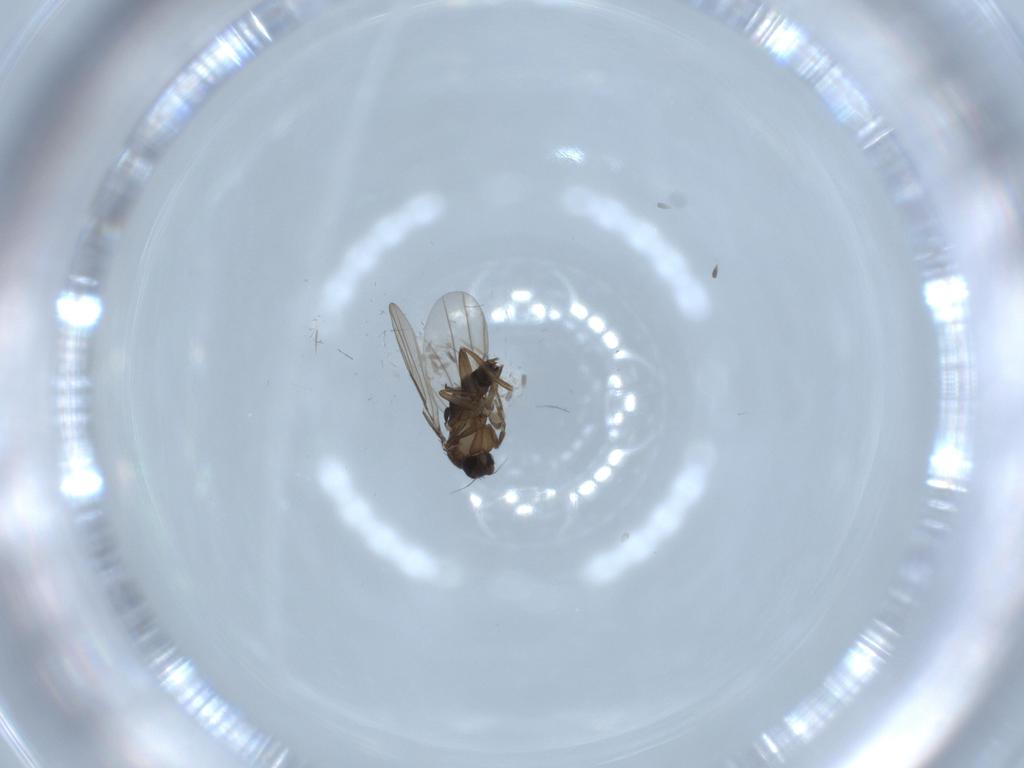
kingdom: Animalia
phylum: Arthropoda
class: Insecta
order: Diptera
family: Phoridae
